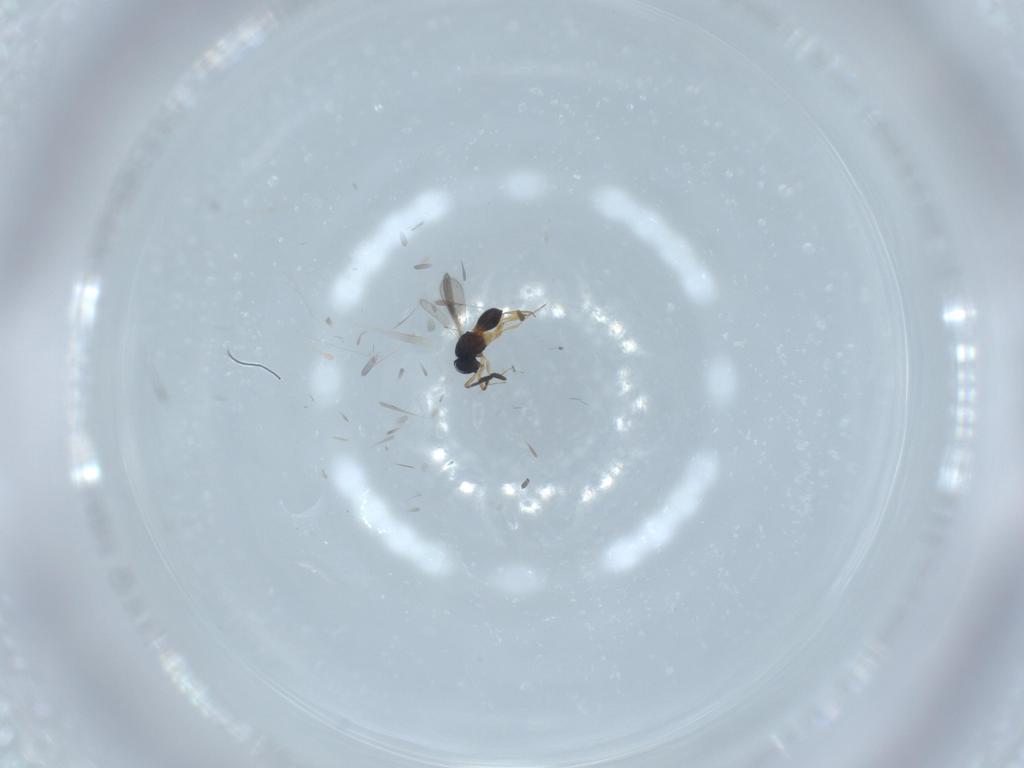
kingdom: Animalia
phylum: Arthropoda
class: Insecta
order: Hymenoptera
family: Scelionidae
